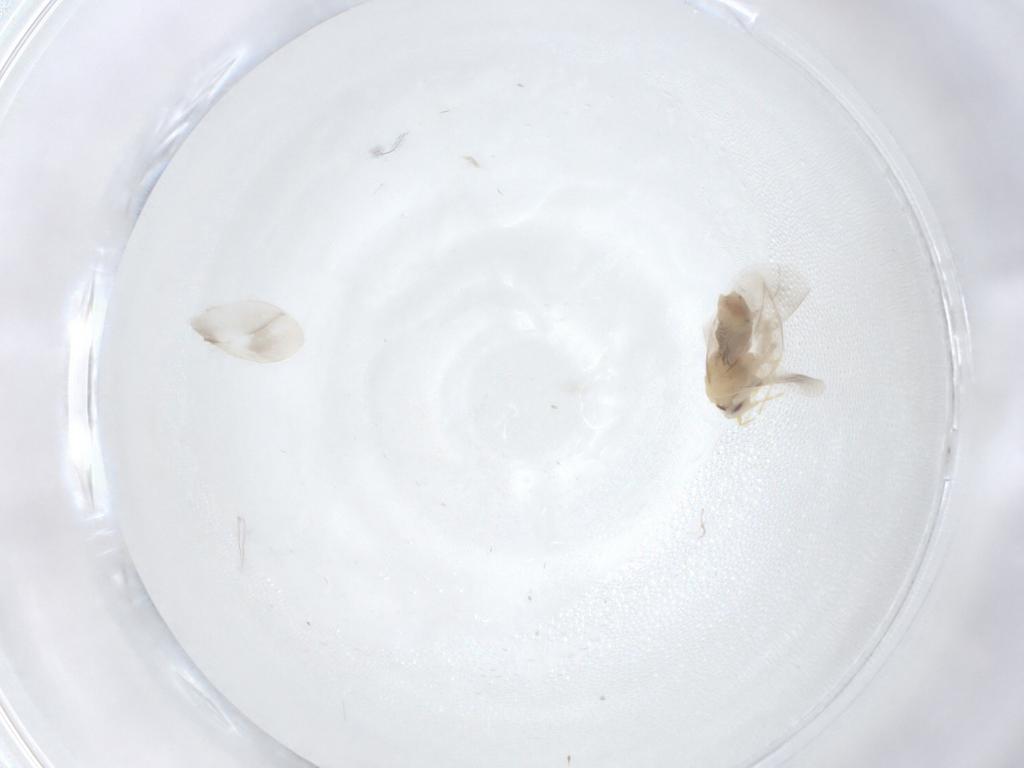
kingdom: Animalia
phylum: Arthropoda
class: Insecta
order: Hemiptera
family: Aleyrodidae
